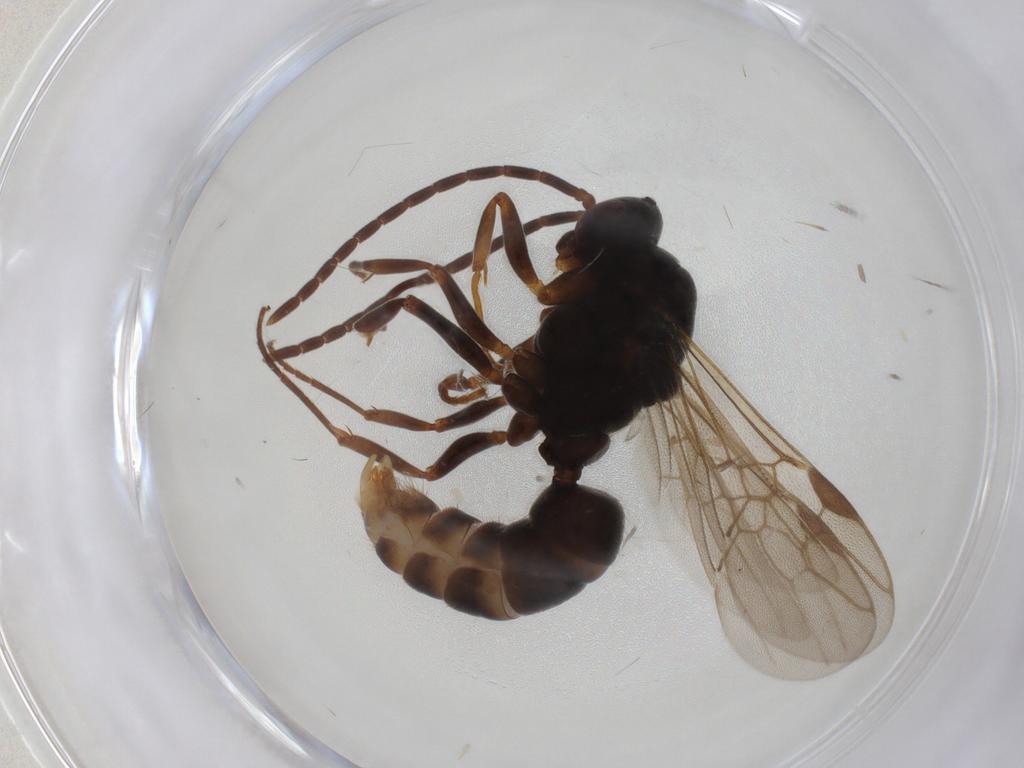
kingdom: Animalia
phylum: Arthropoda
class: Insecta
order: Hymenoptera
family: Formicidae
